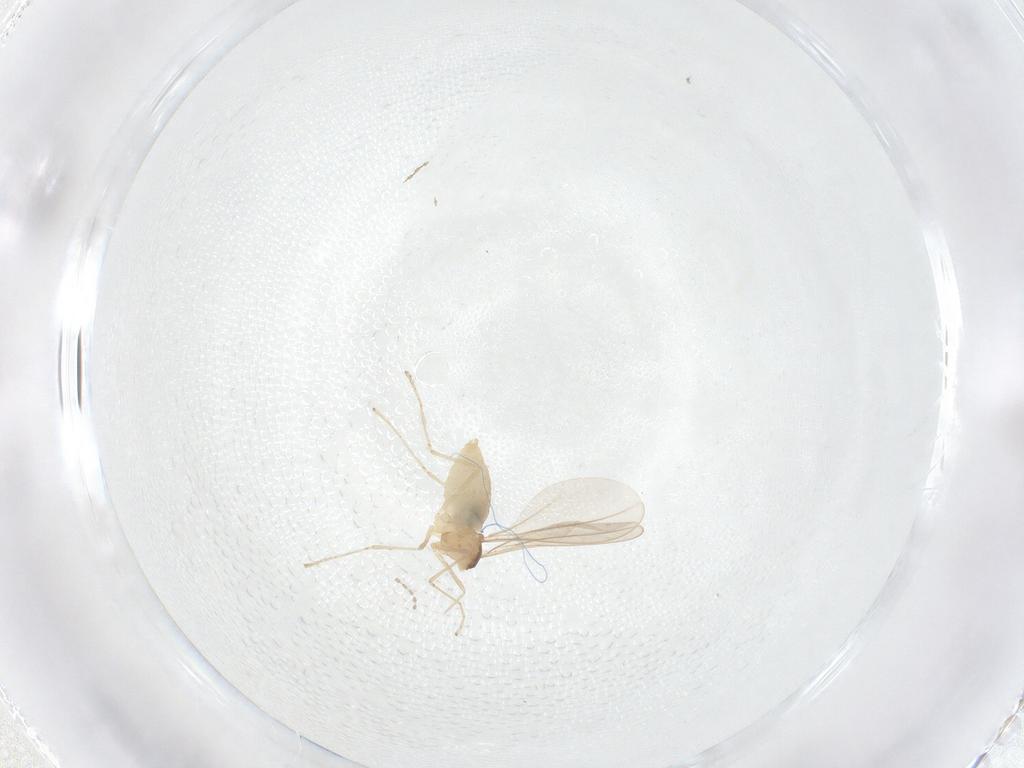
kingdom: Animalia
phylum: Arthropoda
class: Insecta
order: Diptera
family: Cecidomyiidae
